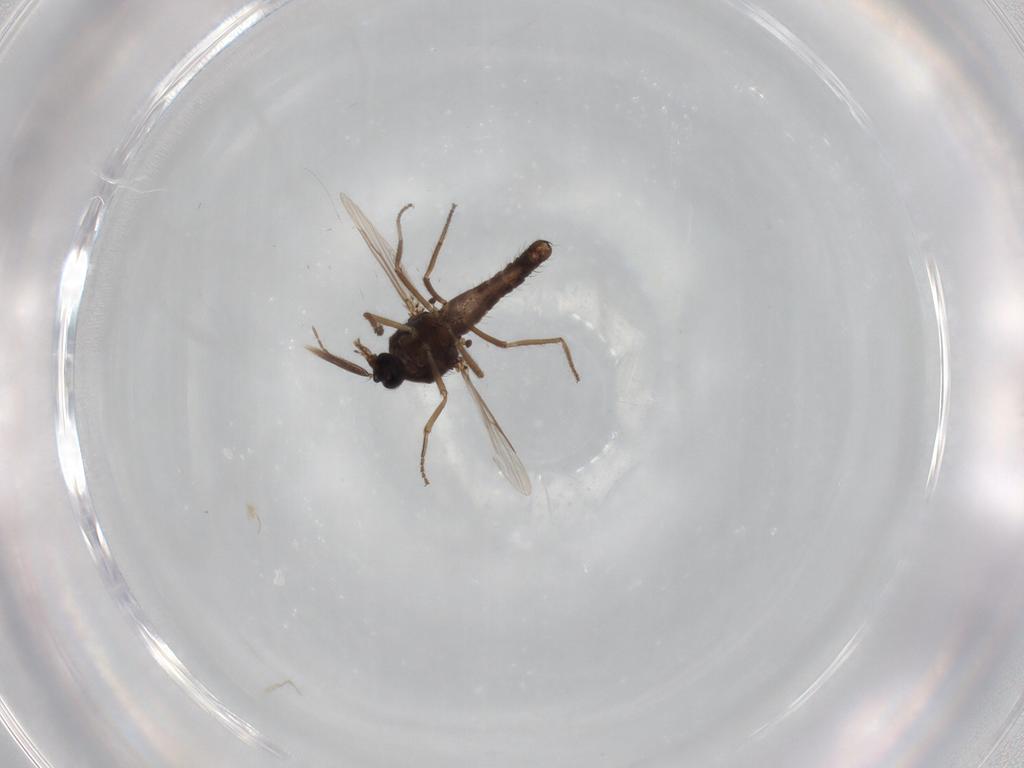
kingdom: Animalia
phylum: Arthropoda
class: Insecta
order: Diptera
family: Ceratopogonidae
